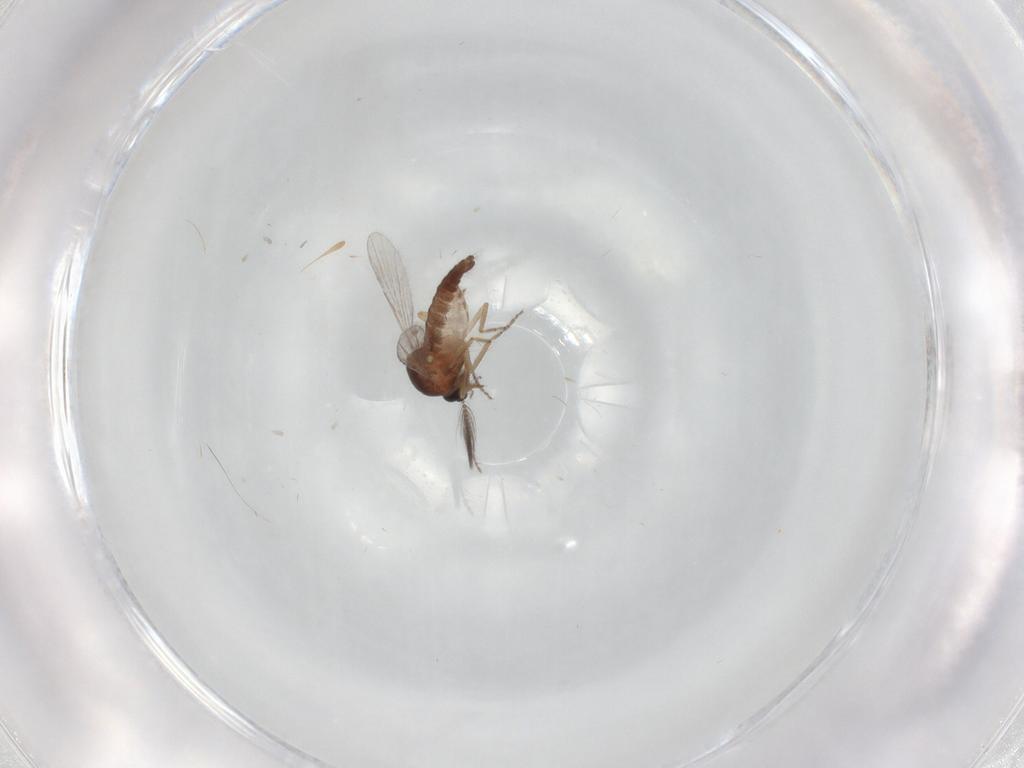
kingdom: Animalia
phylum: Arthropoda
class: Insecta
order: Diptera
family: Ceratopogonidae
